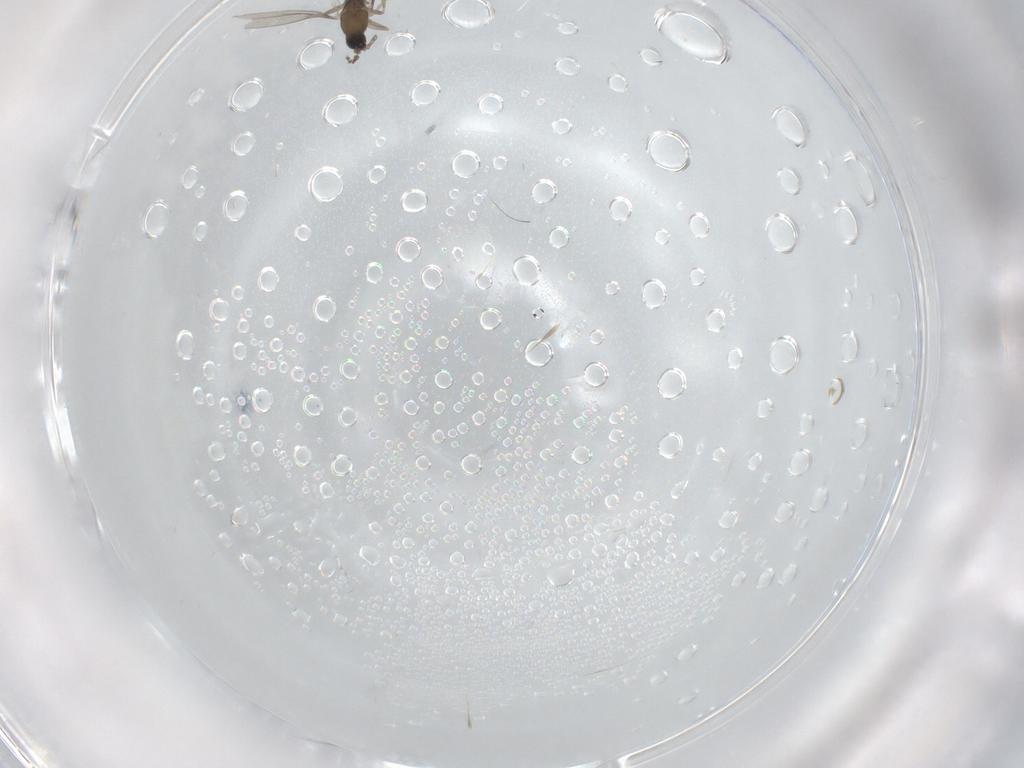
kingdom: Animalia
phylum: Arthropoda
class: Insecta
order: Diptera
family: Cecidomyiidae
